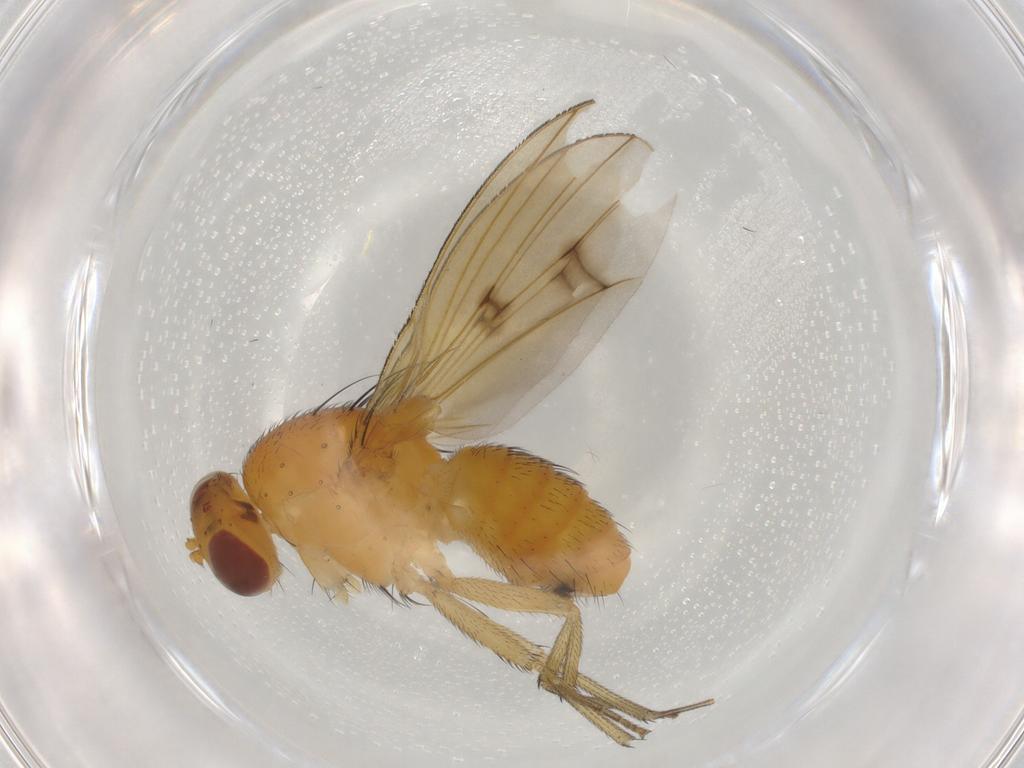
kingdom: Animalia
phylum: Arthropoda
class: Insecta
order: Diptera
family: Lauxaniidae
